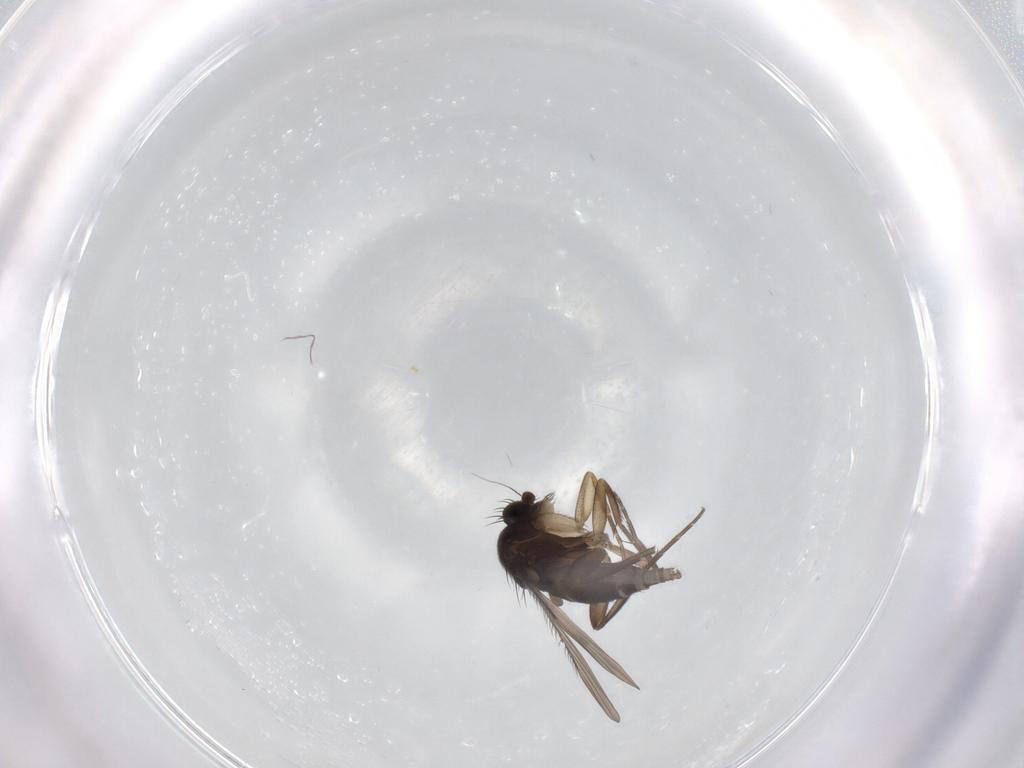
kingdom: Animalia
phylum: Arthropoda
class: Insecta
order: Diptera
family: Phoridae
